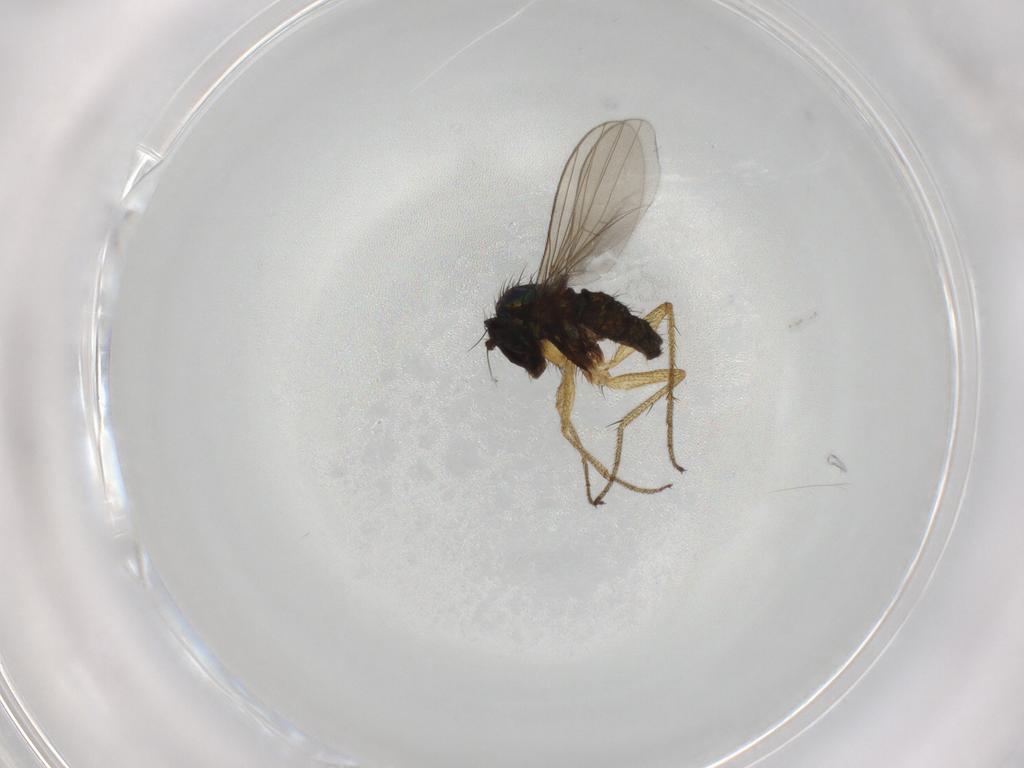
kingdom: Animalia
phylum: Arthropoda
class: Insecta
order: Diptera
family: Dolichopodidae
